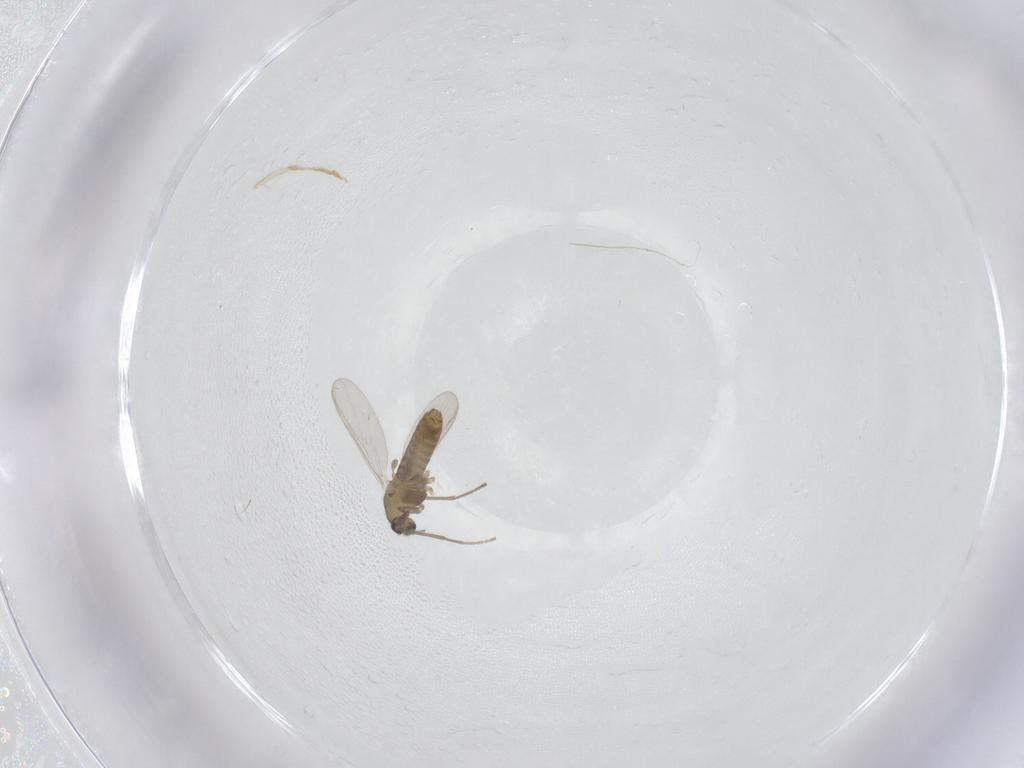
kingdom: Animalia
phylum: Arthropoda
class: Insecta
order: Diptera
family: Chironomidae
